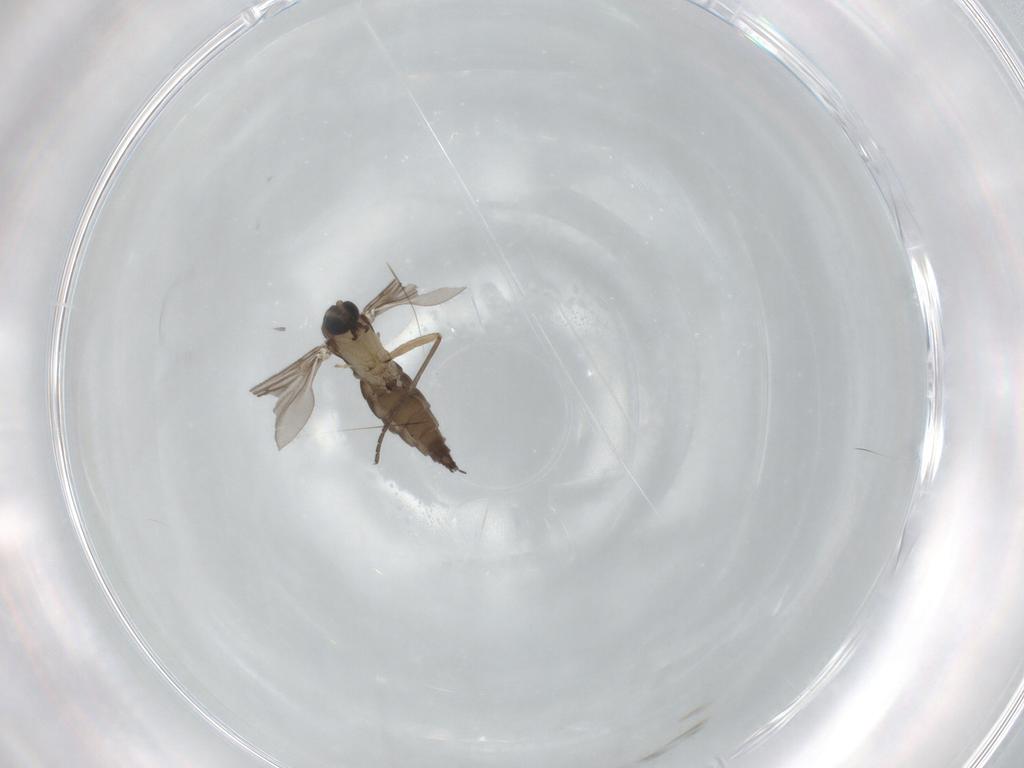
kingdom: Animalia
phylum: Arthropoda
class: Insecta
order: Diptera
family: Sciaridae
